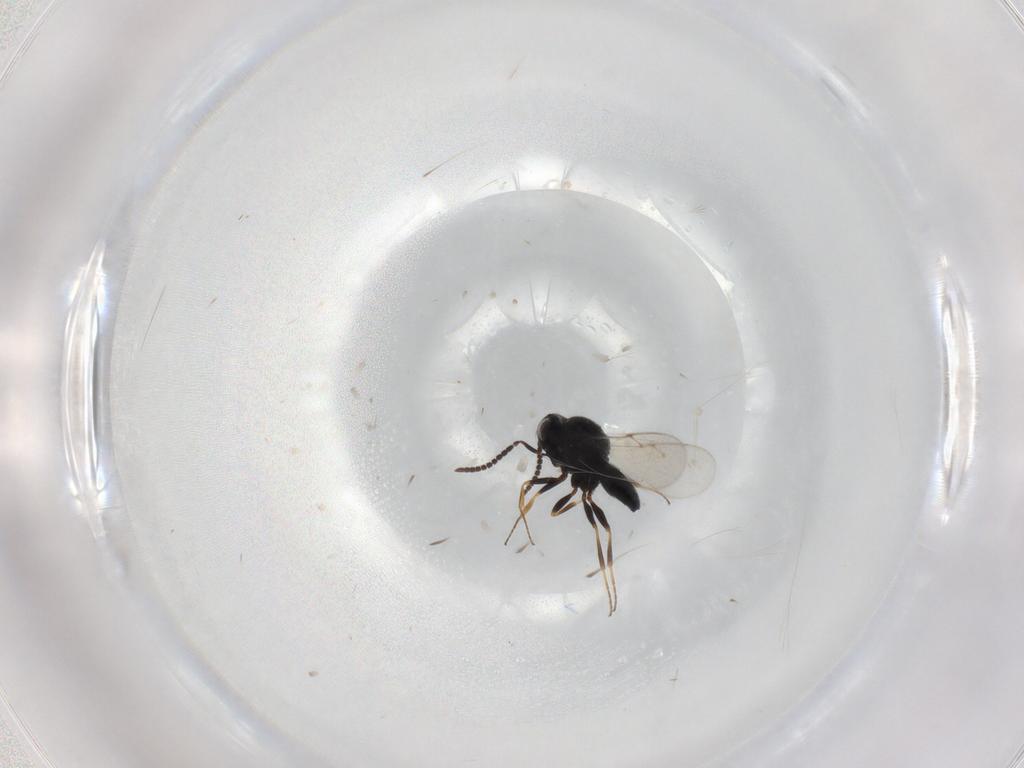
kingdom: Animalia
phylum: Arthropoda
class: Insecta
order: Hymenoptera
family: Scelionidae
